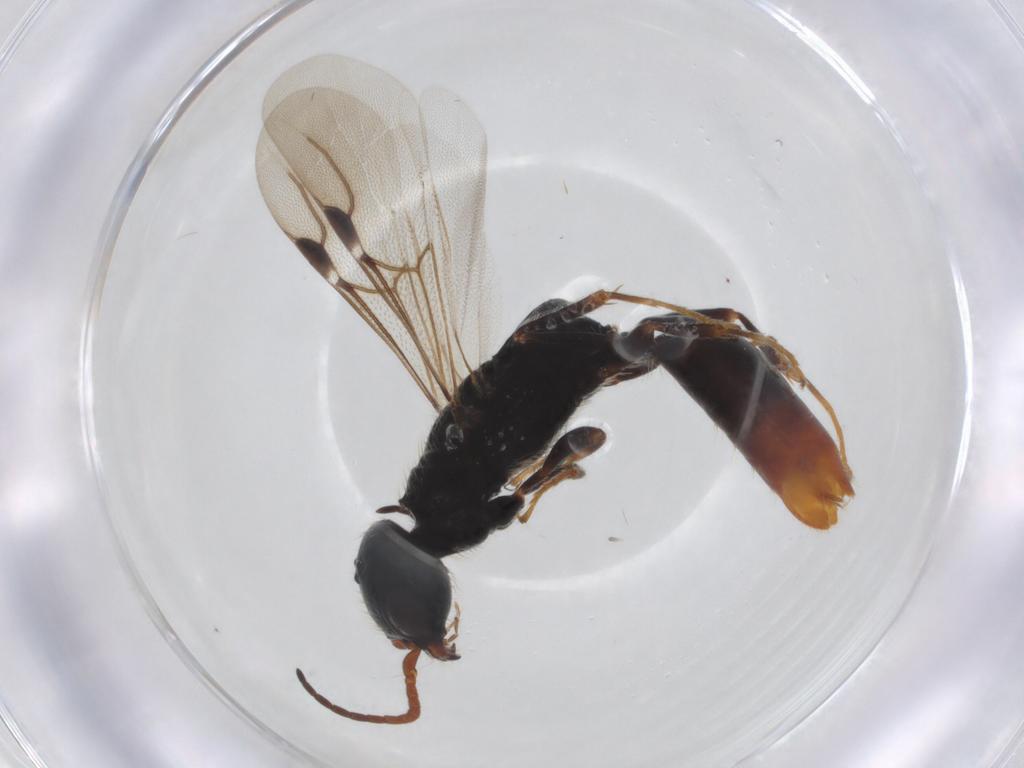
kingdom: Animalia
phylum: Arthropoda
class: Insecta
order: Hymenoptera
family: Bethylidae
